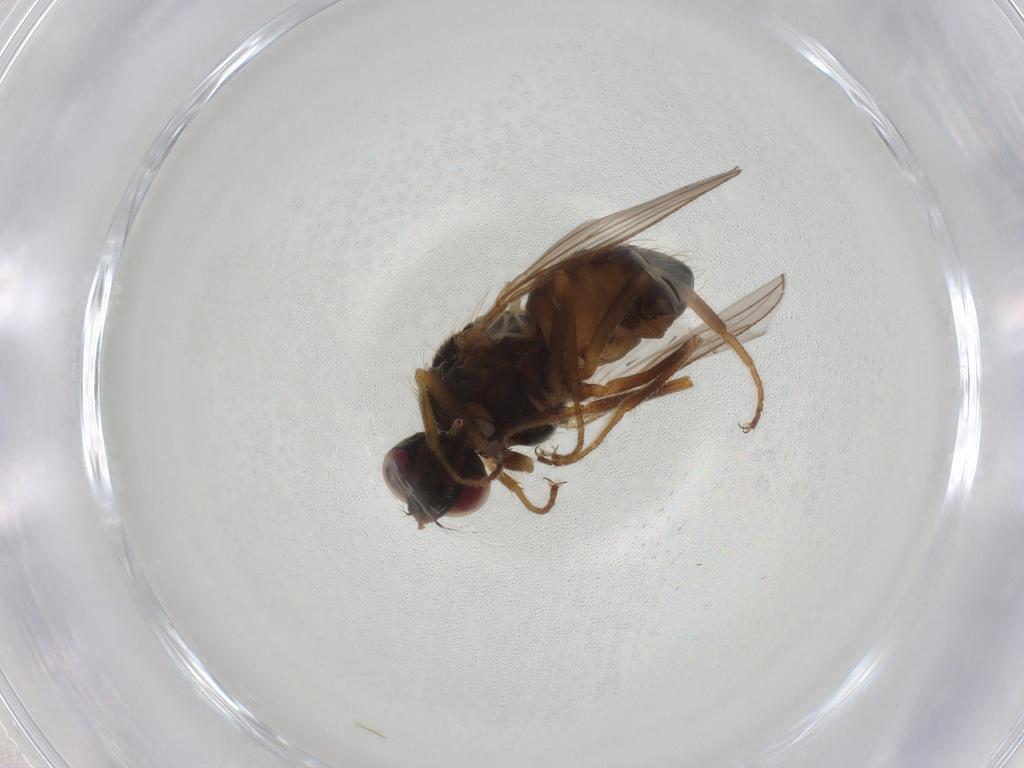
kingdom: Animalia
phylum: Arthropoda
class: Insecta
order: Diptera
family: Muscidae
